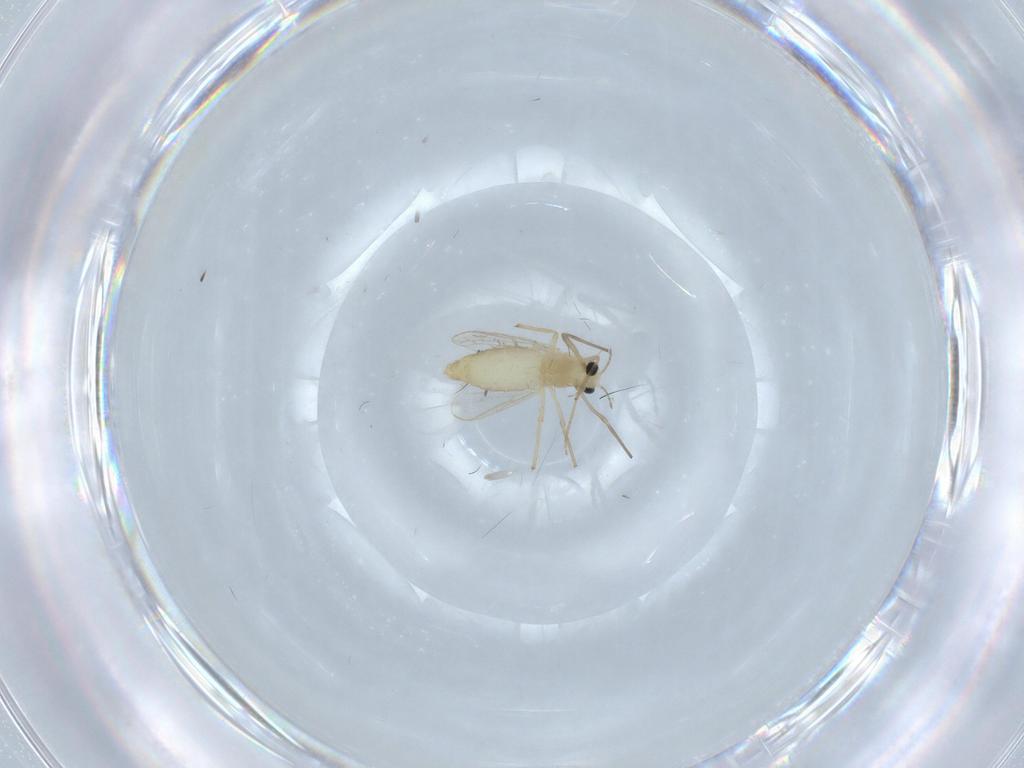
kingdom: Animalia
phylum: Arthropoda
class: Insecta
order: Diptera
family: Chironomidae
